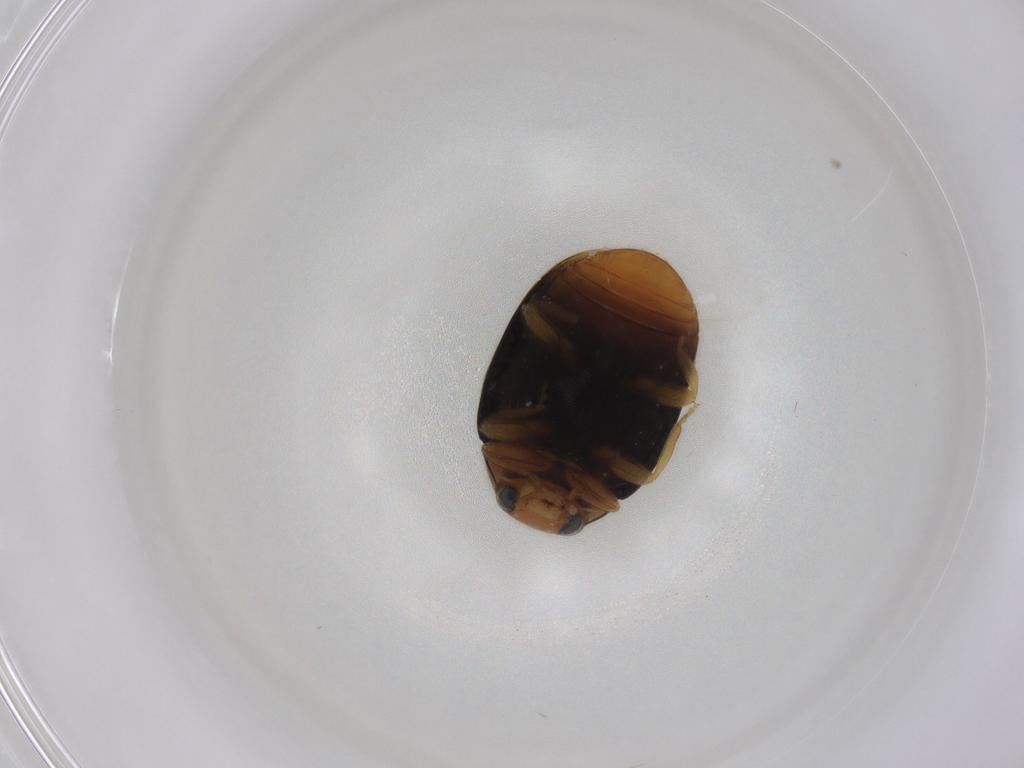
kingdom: Animalia
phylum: Arthropoda
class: Insecta
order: Coleoptera
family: Coccinellidae
